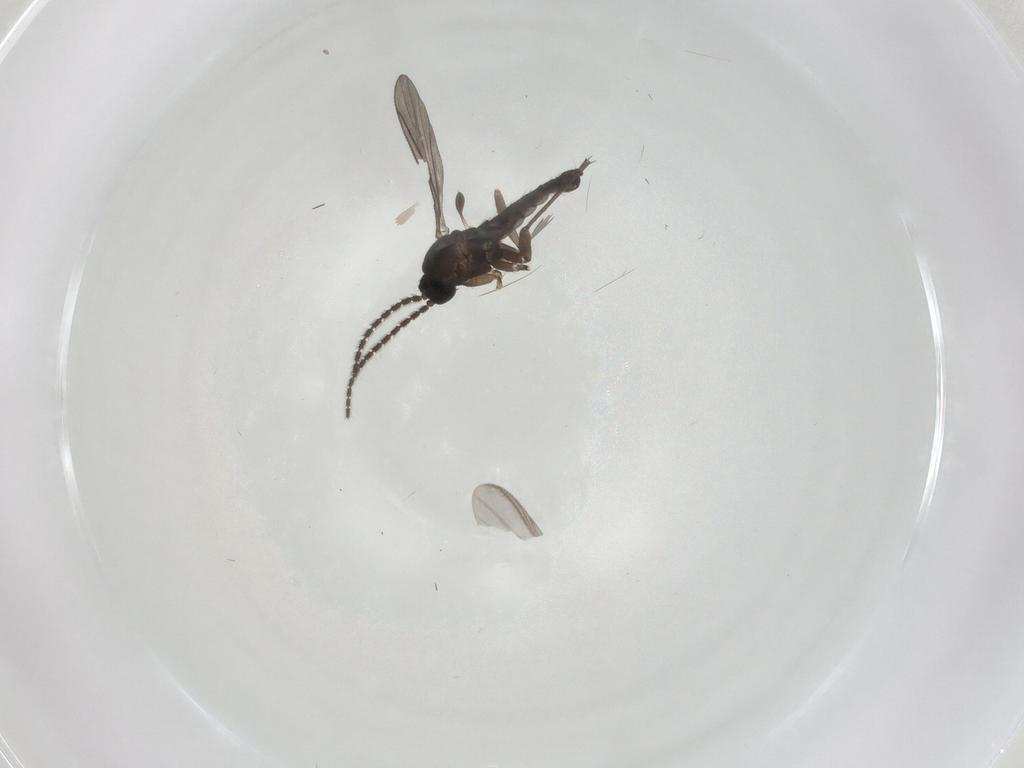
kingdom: Animalia
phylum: Arthropoda
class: Insecta
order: Diptera
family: Sciaridae
